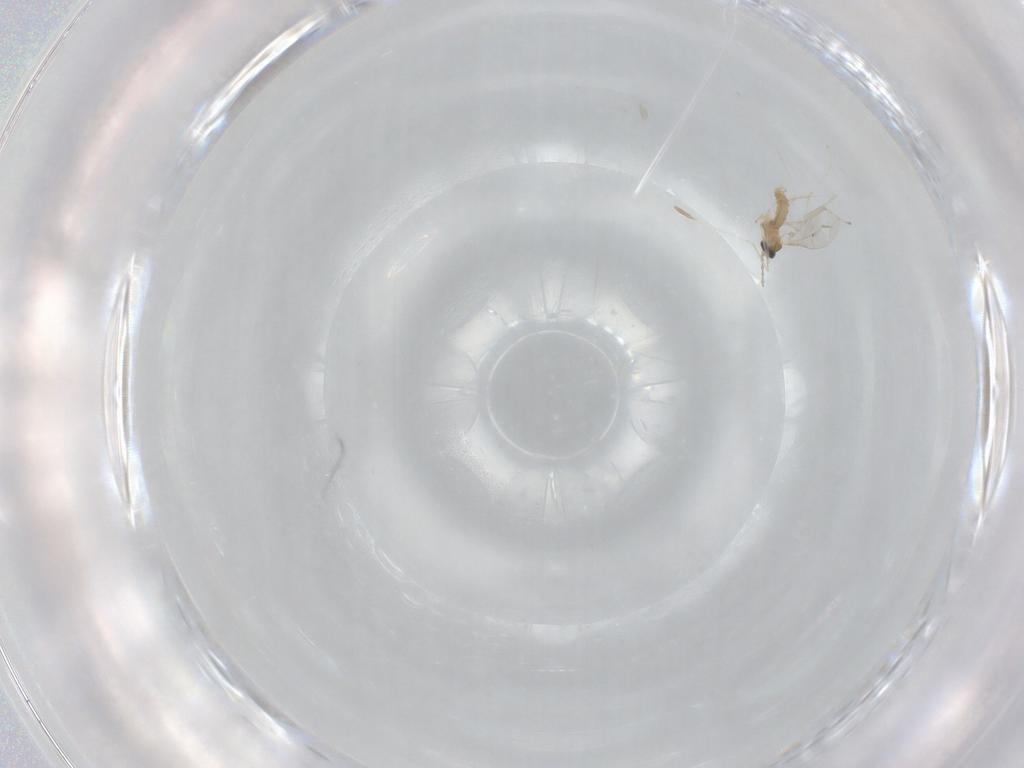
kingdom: Animalia
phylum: Arthropoda
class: Insecta
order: Diptera
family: Cecidomyiidae
